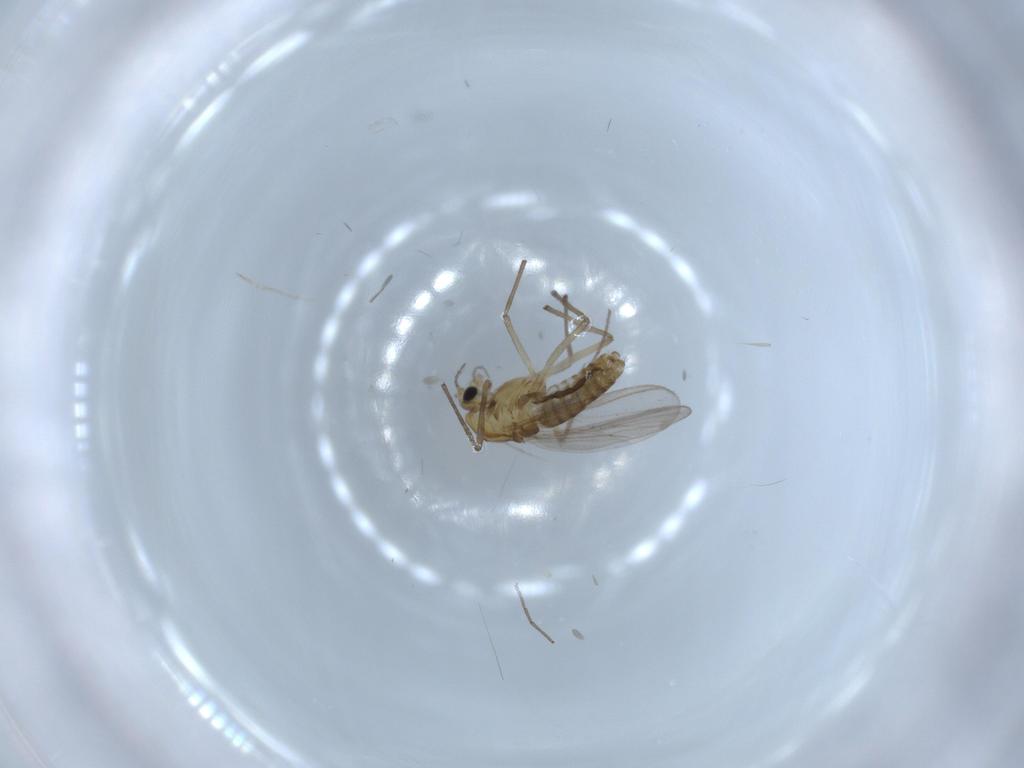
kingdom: Animalia
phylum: Arthropoda
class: Insecta
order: Diptera
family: Chironomidae
